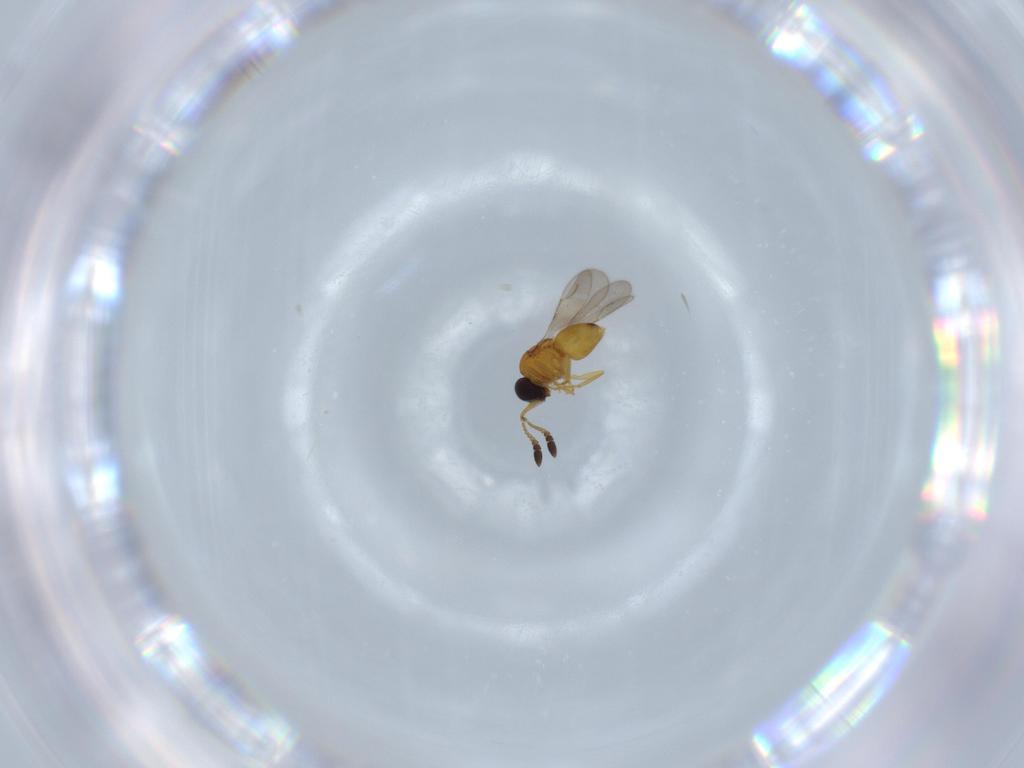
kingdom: Animalia
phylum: Arthropoda
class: Insecta
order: Hymenoptera
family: Ceraphronidae
